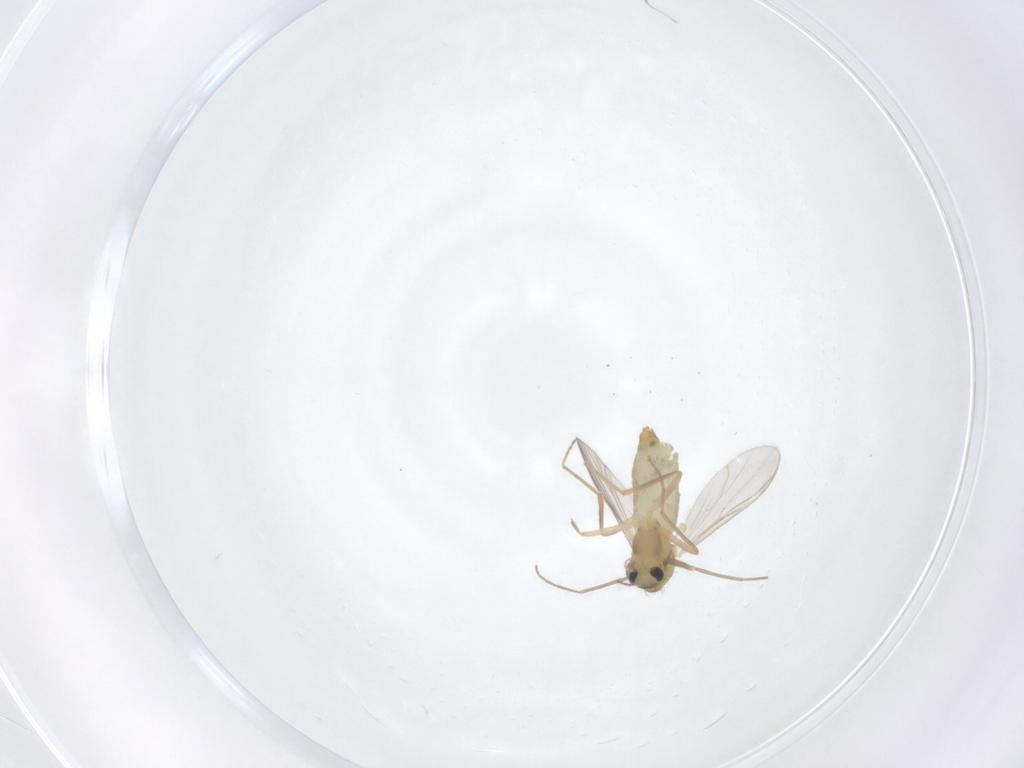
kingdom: Animalia
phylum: Arthropoda
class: Insecta
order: Diptera
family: Chironomidae
